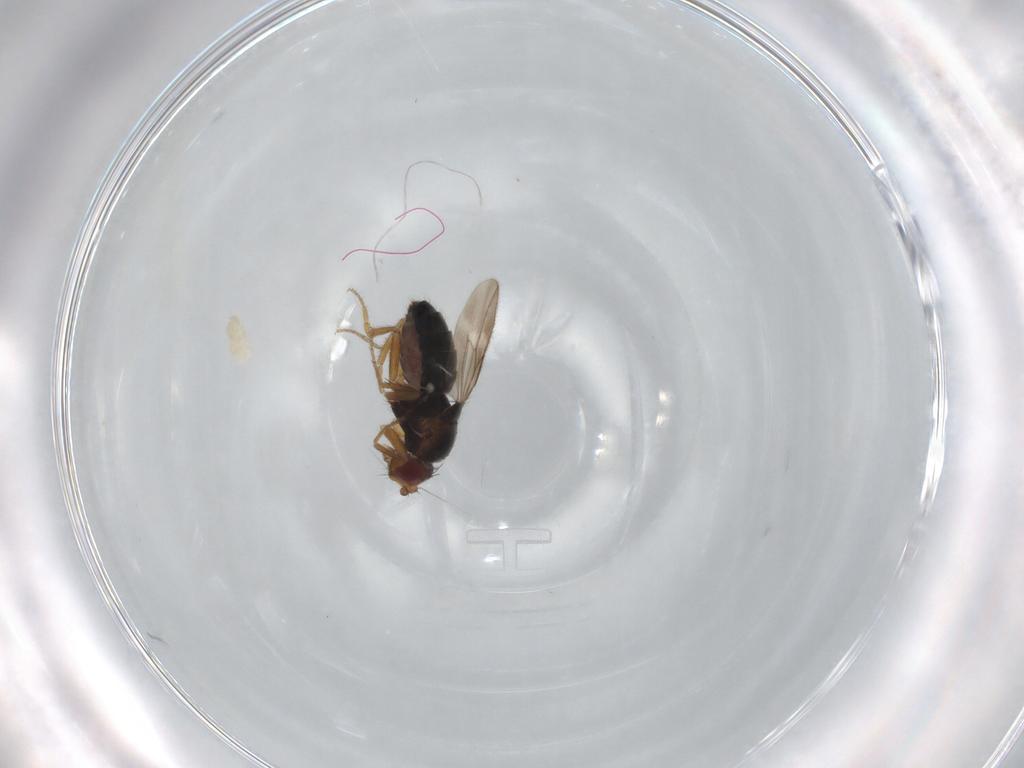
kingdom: Animalia
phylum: Arthropoda
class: Insecta
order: Diptera
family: Sphaeroceridae
